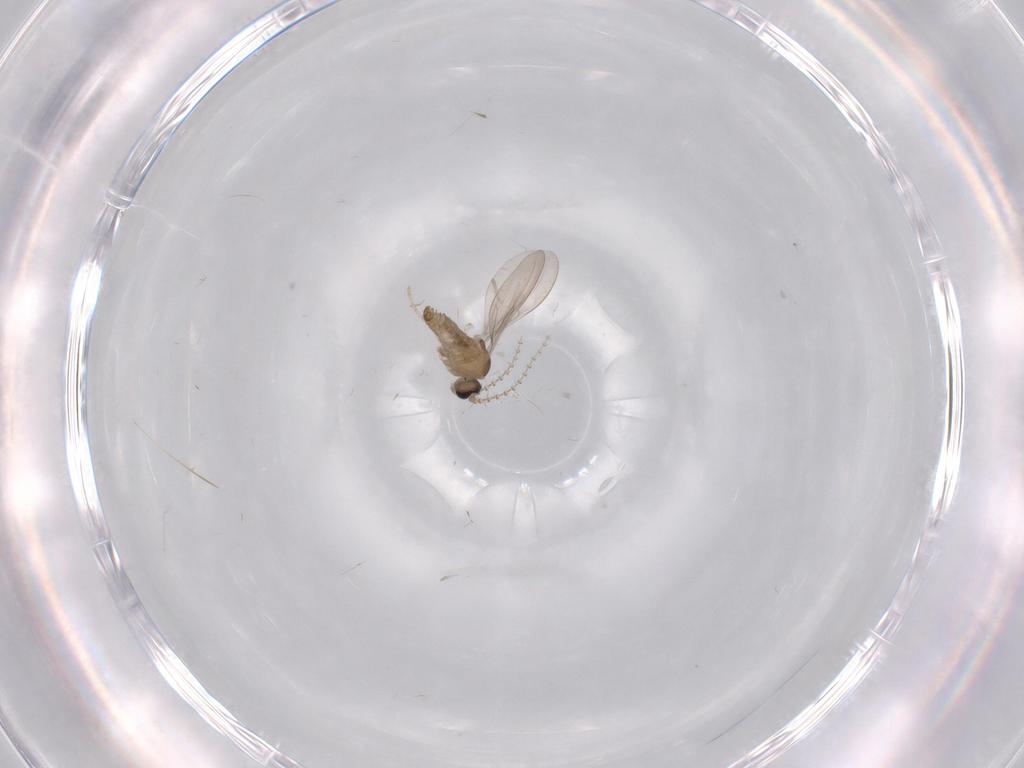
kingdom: Animalia
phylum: Arthropoda
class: Insecta
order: Diptera
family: Cecidomyiidae
